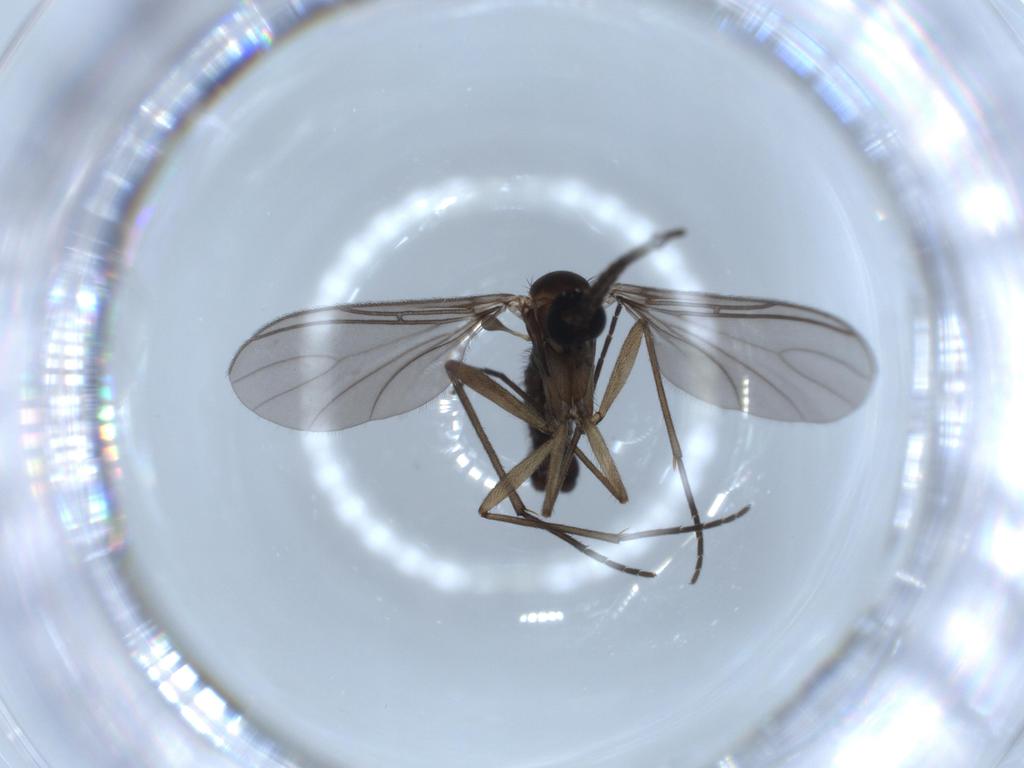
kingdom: Animalia
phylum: Arthropoda
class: Insecta
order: Diptera
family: Sciaridae
